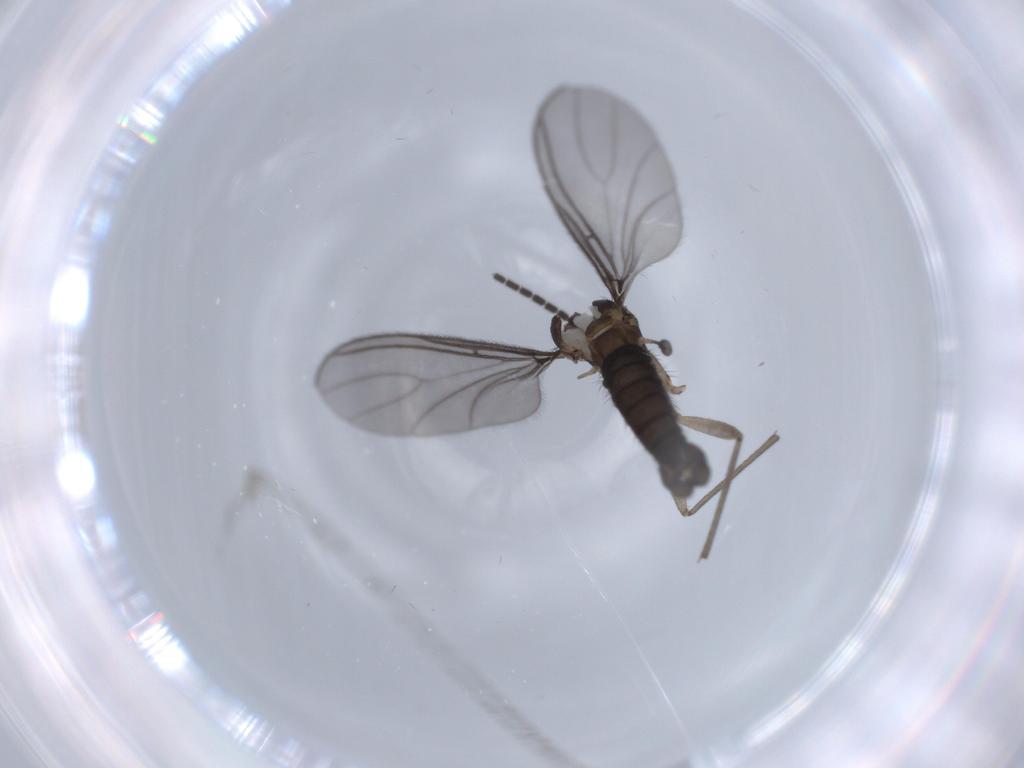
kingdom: Animalia
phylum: Arthropoda
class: Insecta
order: Diptera
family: Sciaridae
